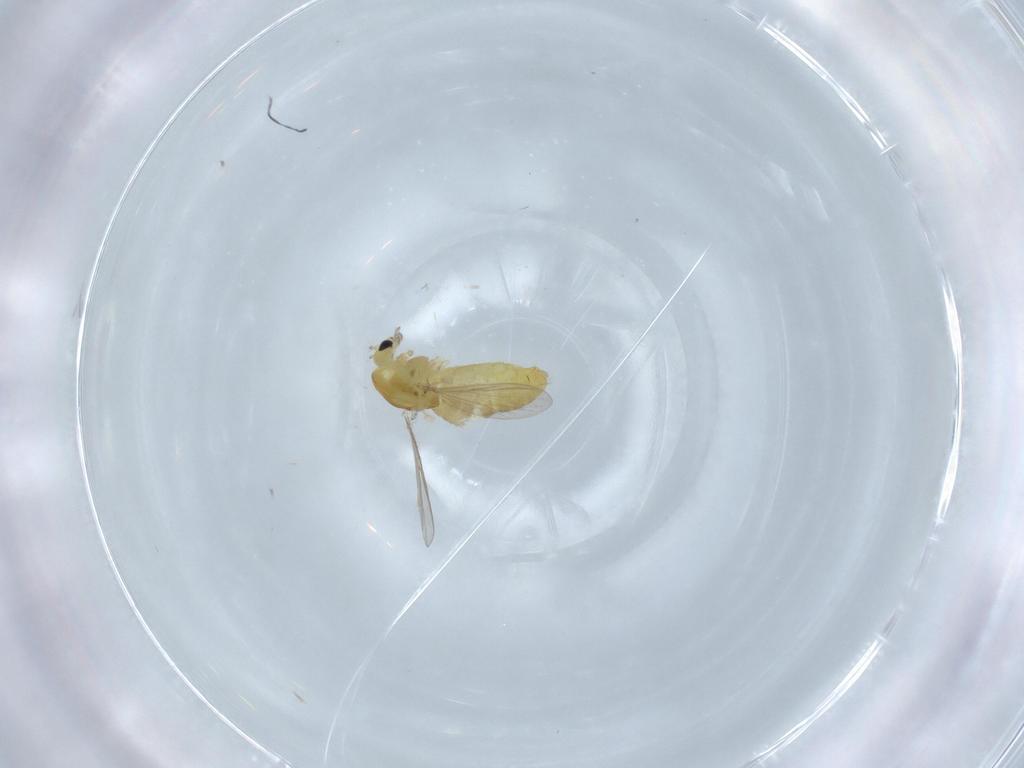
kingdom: Animalia
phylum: Arthropoda
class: Insecta
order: Diptera
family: Chironomidae
